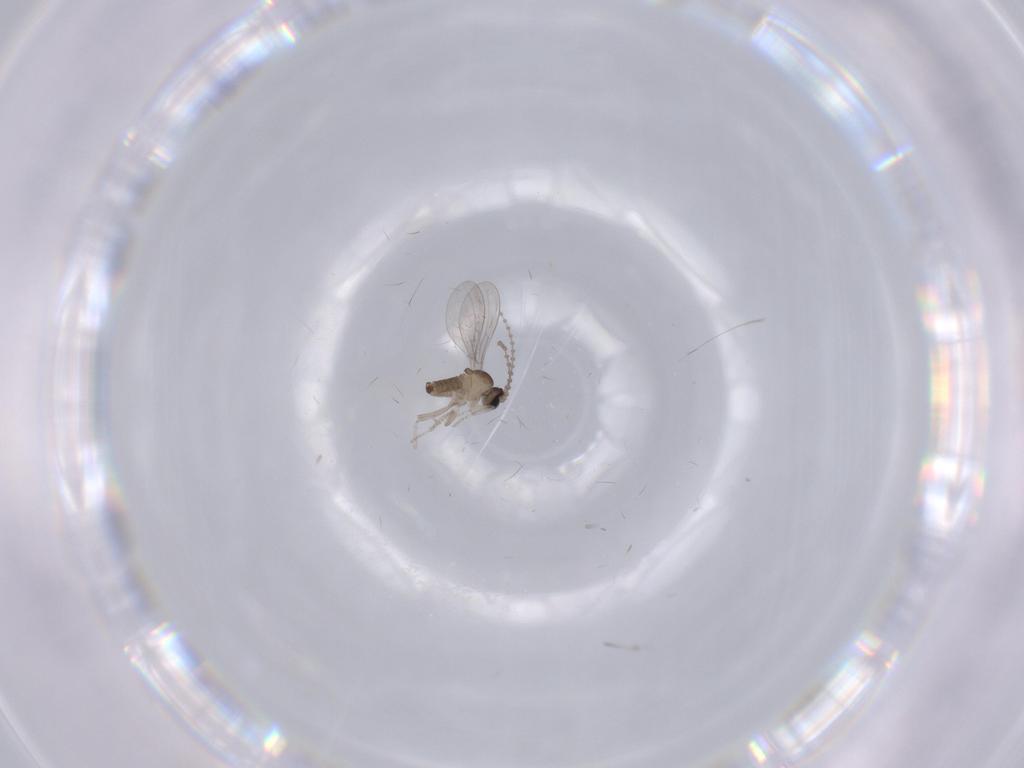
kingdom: Animalia
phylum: Arthropoda
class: Insecta
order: Diptera
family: Cecidomyiidae
